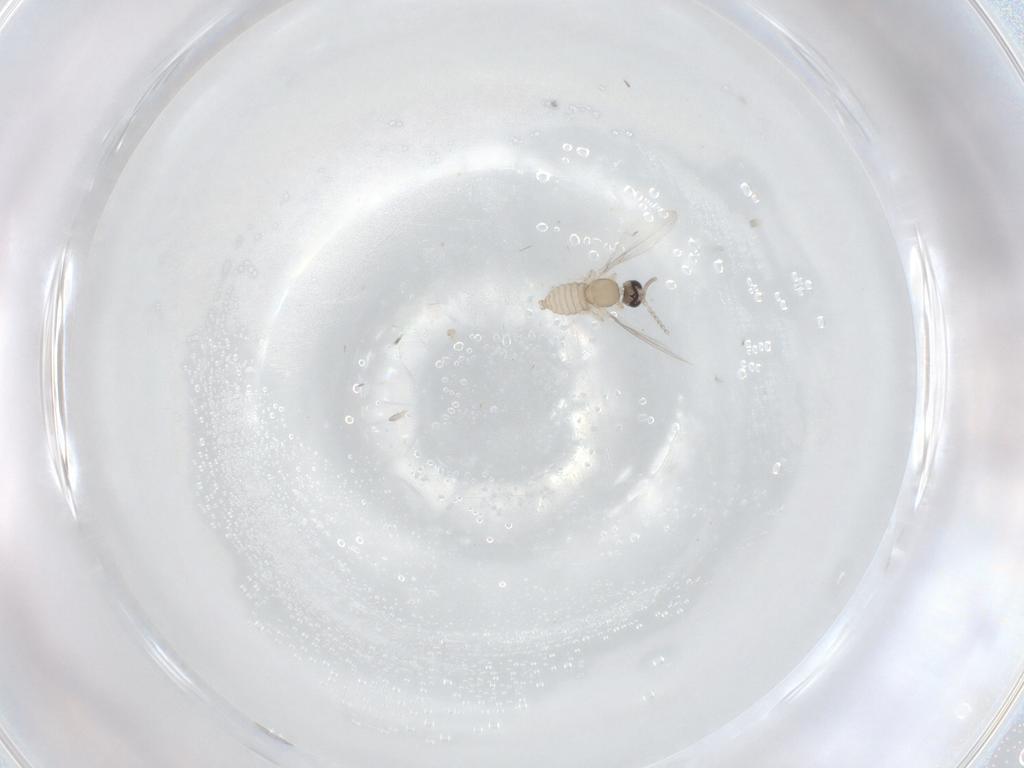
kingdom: Animalia
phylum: Arthropoda
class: Insecta
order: Diptera
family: Cecidomyiidae
